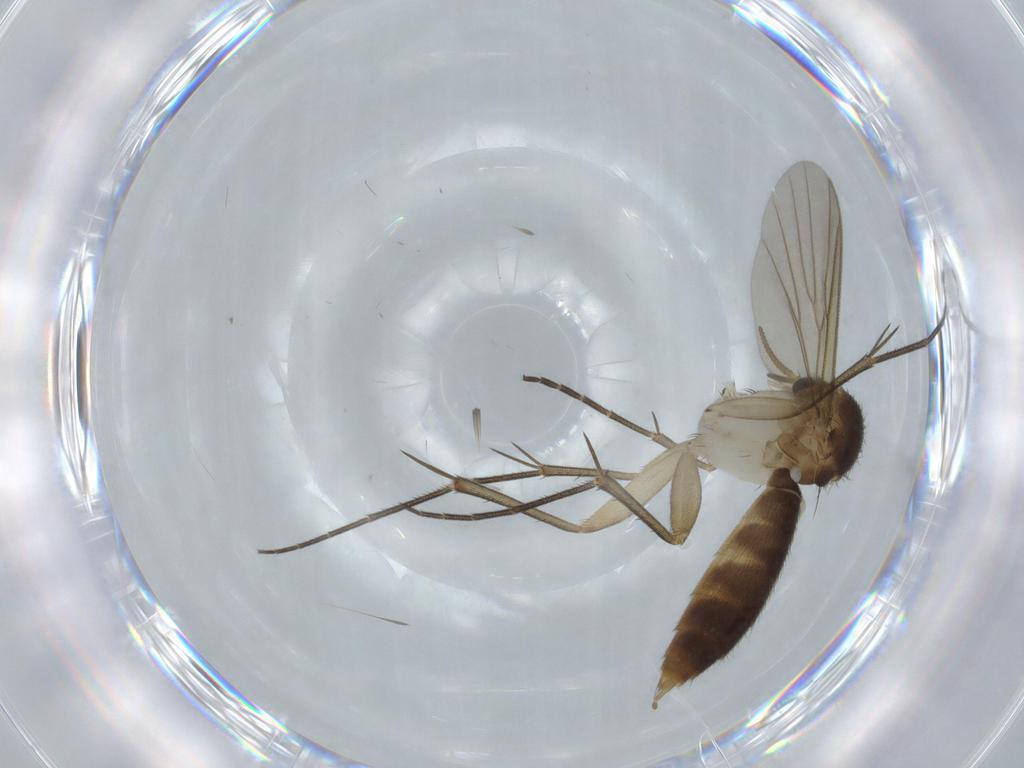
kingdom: Animalia
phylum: Arthropoda
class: Insecta
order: Diptera
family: Mycetophilidae
